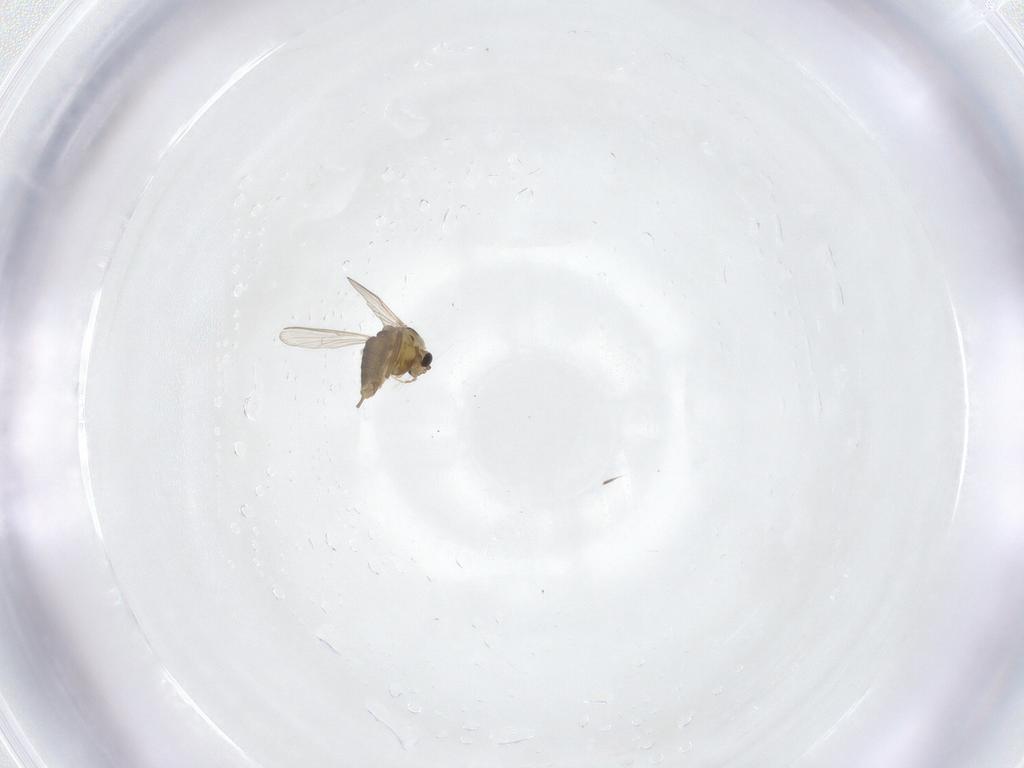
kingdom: Animalia
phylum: Arthropoda
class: Insecta
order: Diptera
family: Chironomidae
